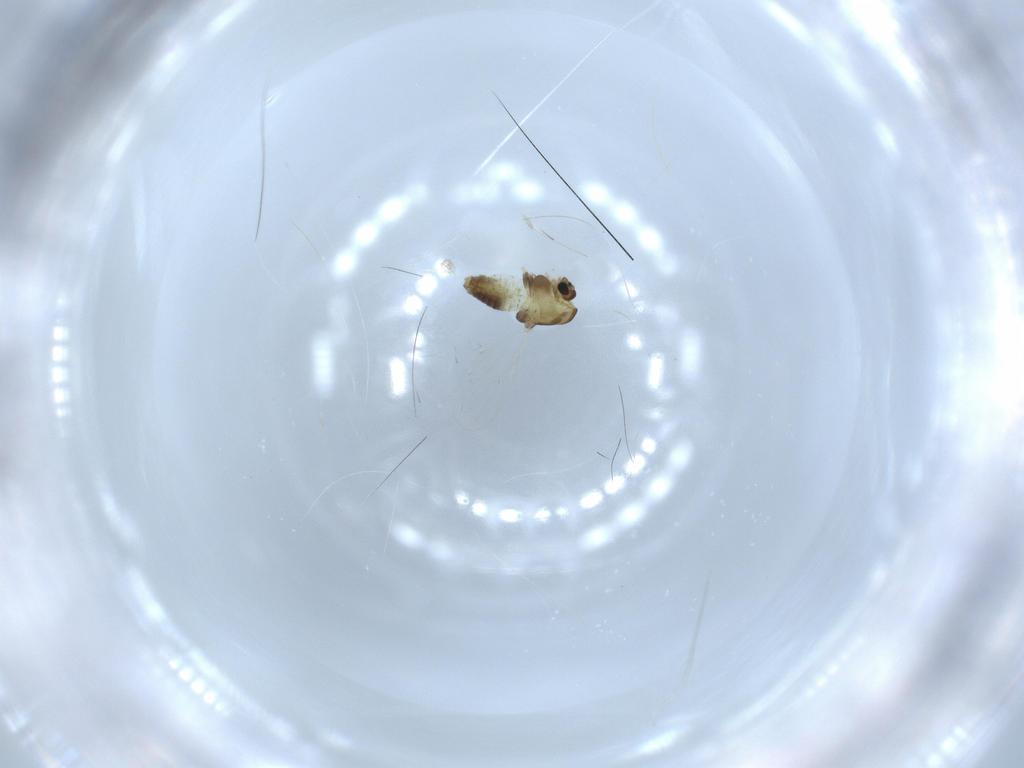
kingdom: Animalia
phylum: Arthropoda
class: Insecta
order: Diptera
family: Chironomidae
